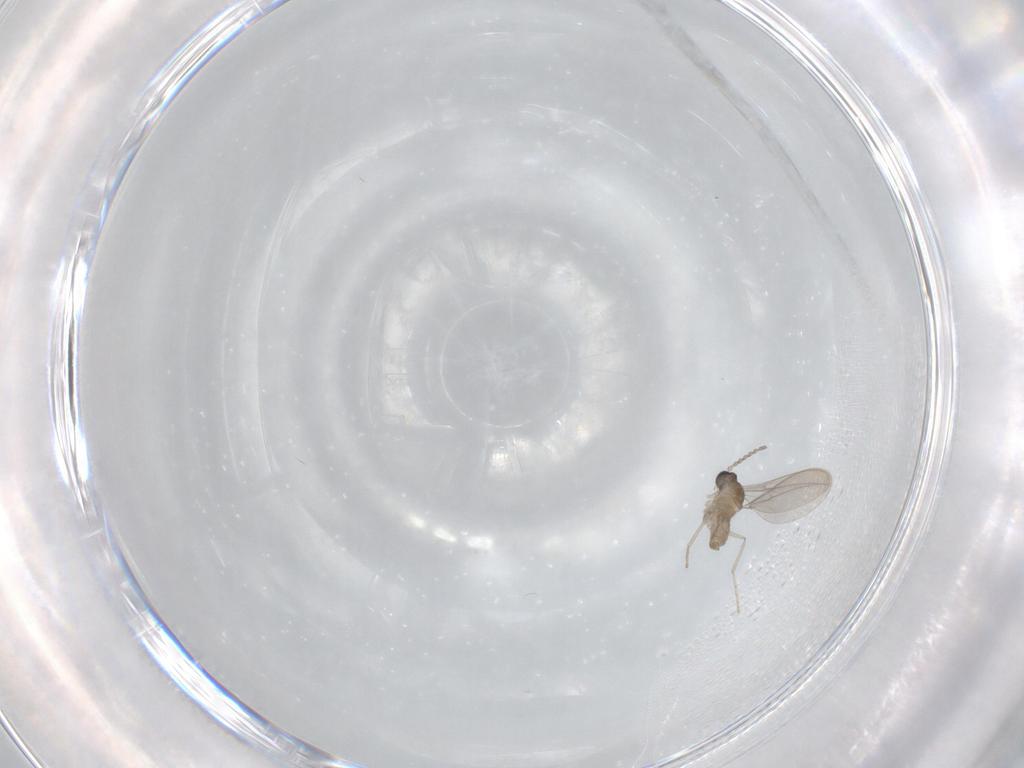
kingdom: Animalia
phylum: Arthropoda
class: Insecta
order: Diptera
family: Cecidomyiidae
